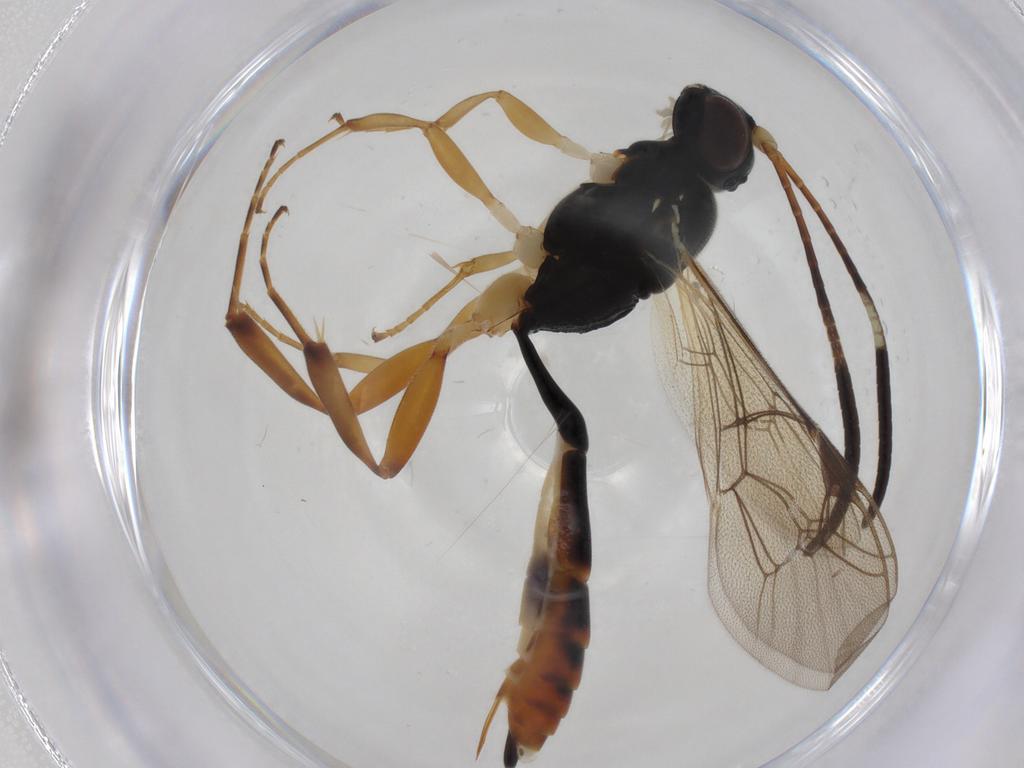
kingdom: Animalia
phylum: Arthropoda
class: Insecta
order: Hymenoptera
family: Ichneumonidae
